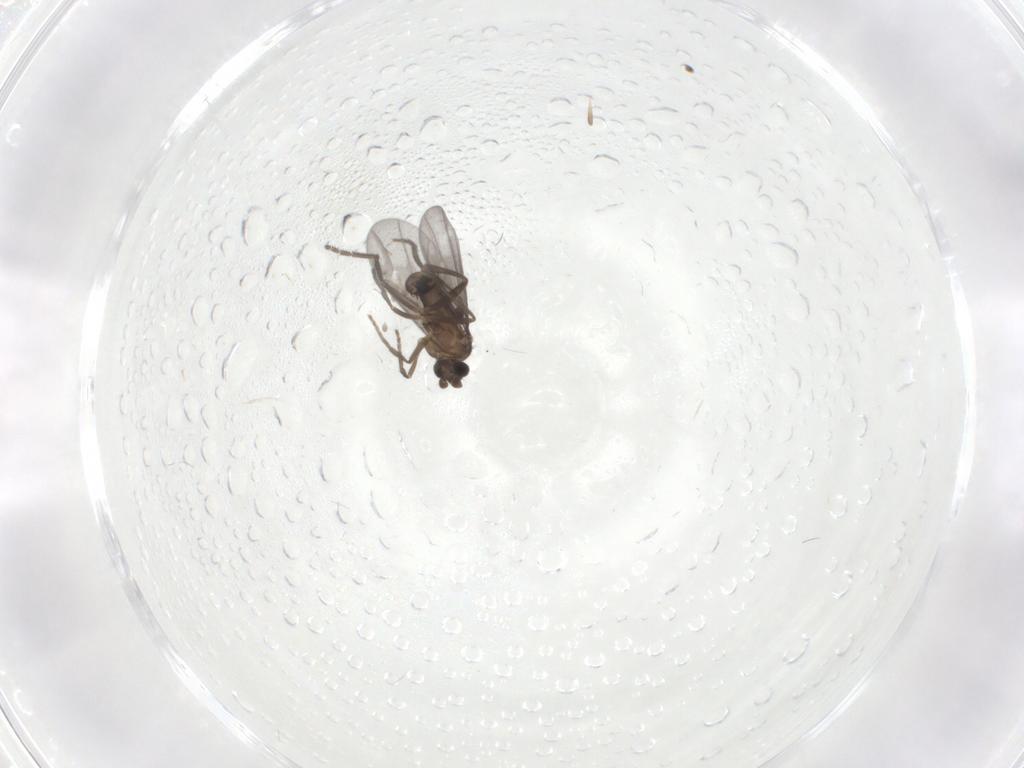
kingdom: Animalia
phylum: Arthropoda
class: Insecta
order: Diptera
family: Phoridae
